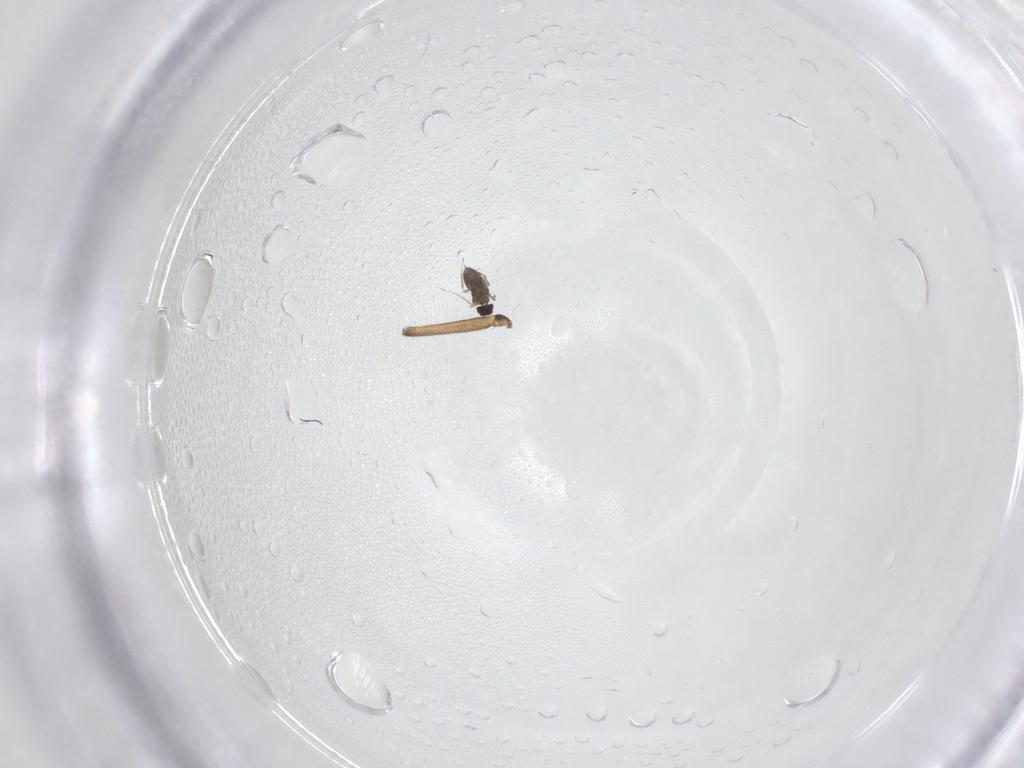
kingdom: Animalia
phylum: Arthropoda
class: Insecta
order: Diptera
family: Mycetophilidae
